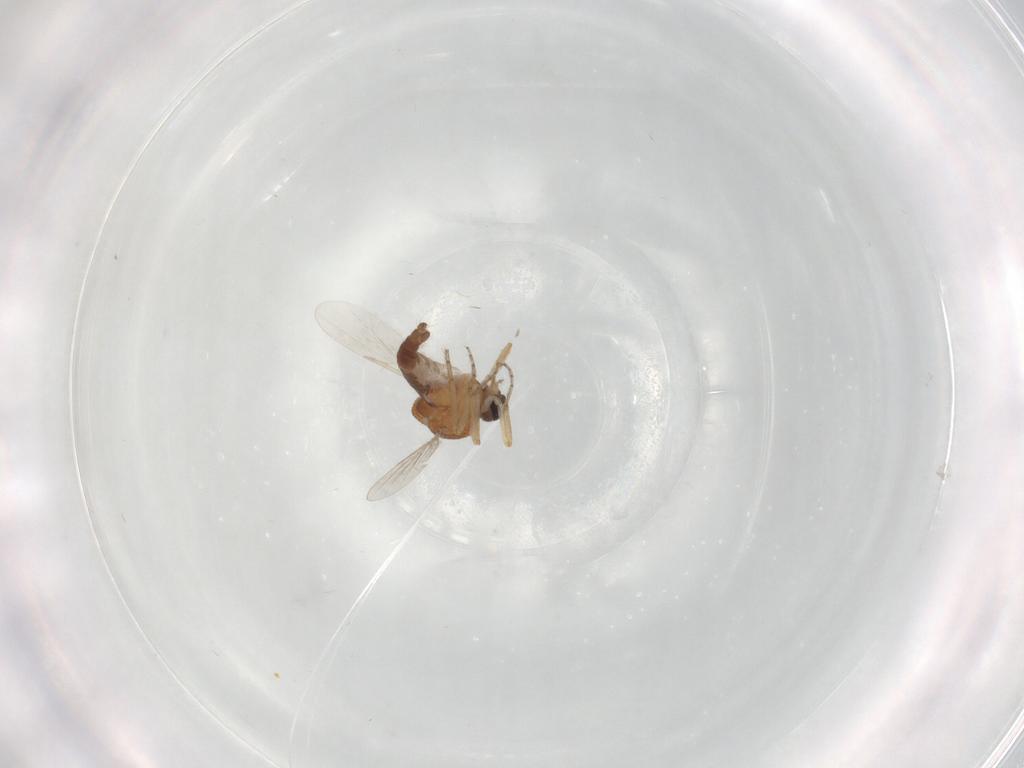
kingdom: Animalia
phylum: Arthropoda
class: Insecta
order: Diptera
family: Ceratopogonidae
